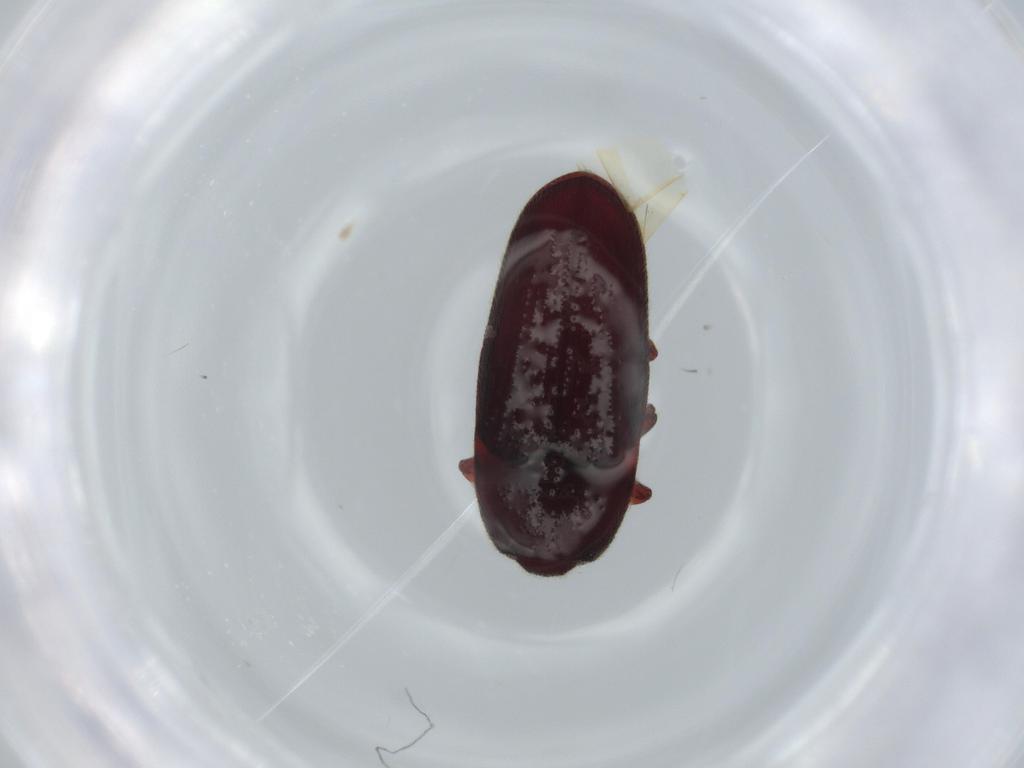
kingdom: Animalia
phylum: Arthropoda
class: Insecta
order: Coleoptera
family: Throscidae
